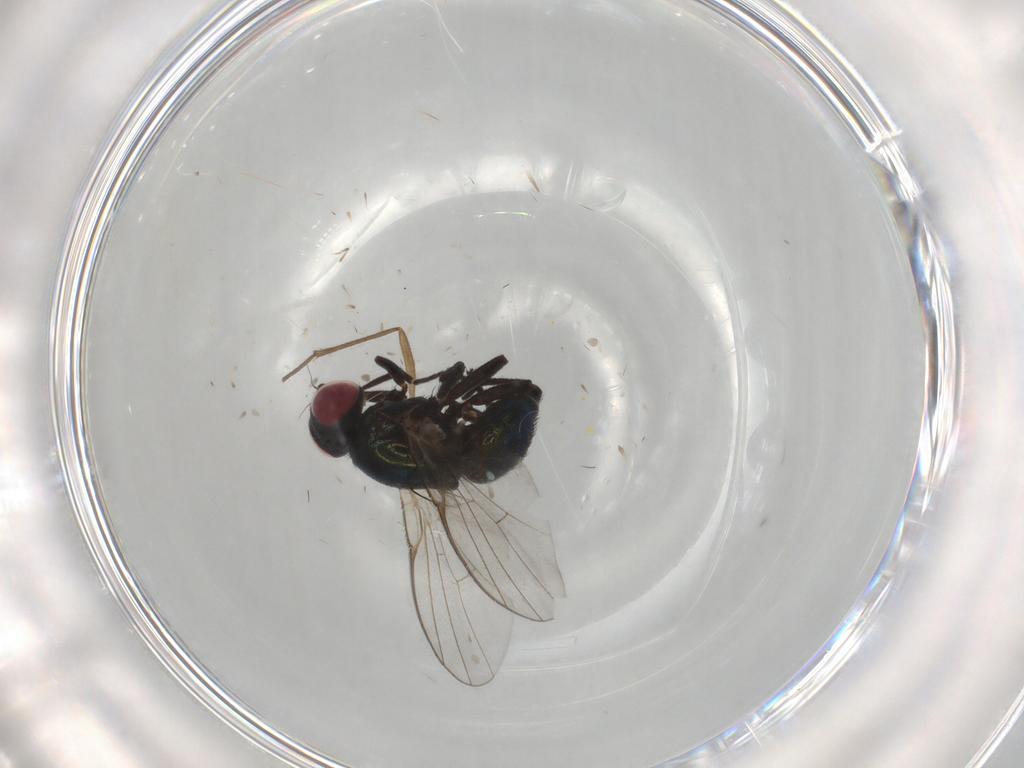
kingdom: Animalia
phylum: Arthropoda
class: Insecta
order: Diptera
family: Agromyzidae
